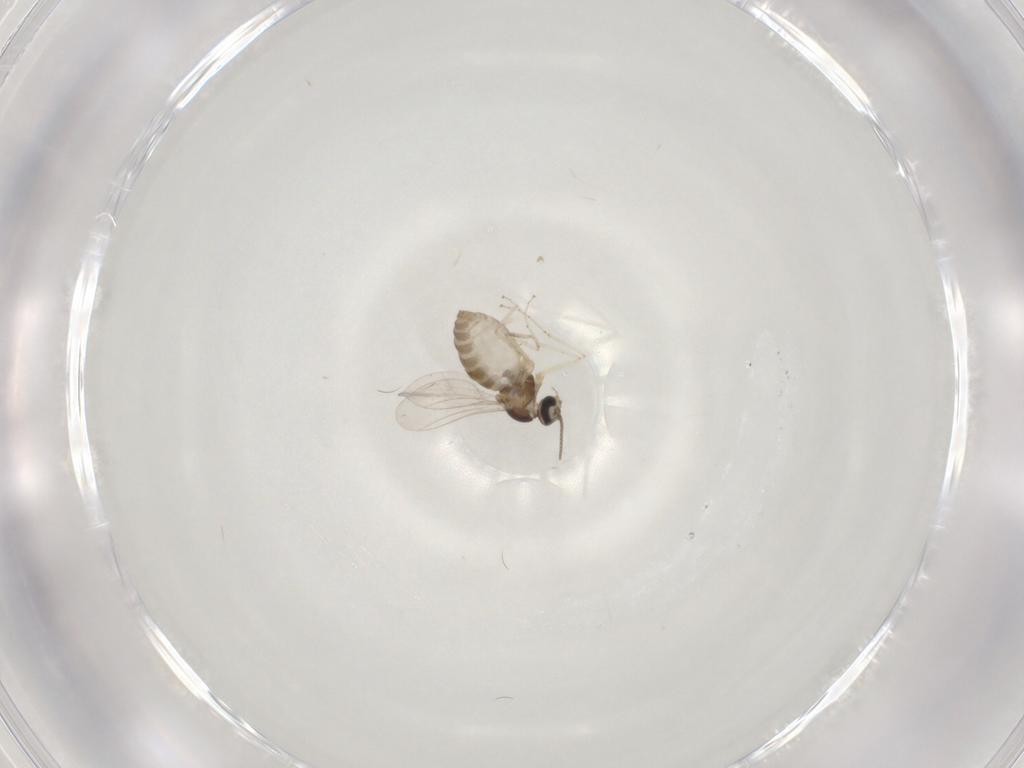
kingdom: Animalia
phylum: Arthropoda
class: Insecta
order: Diptera
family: Cecidomyiidae
